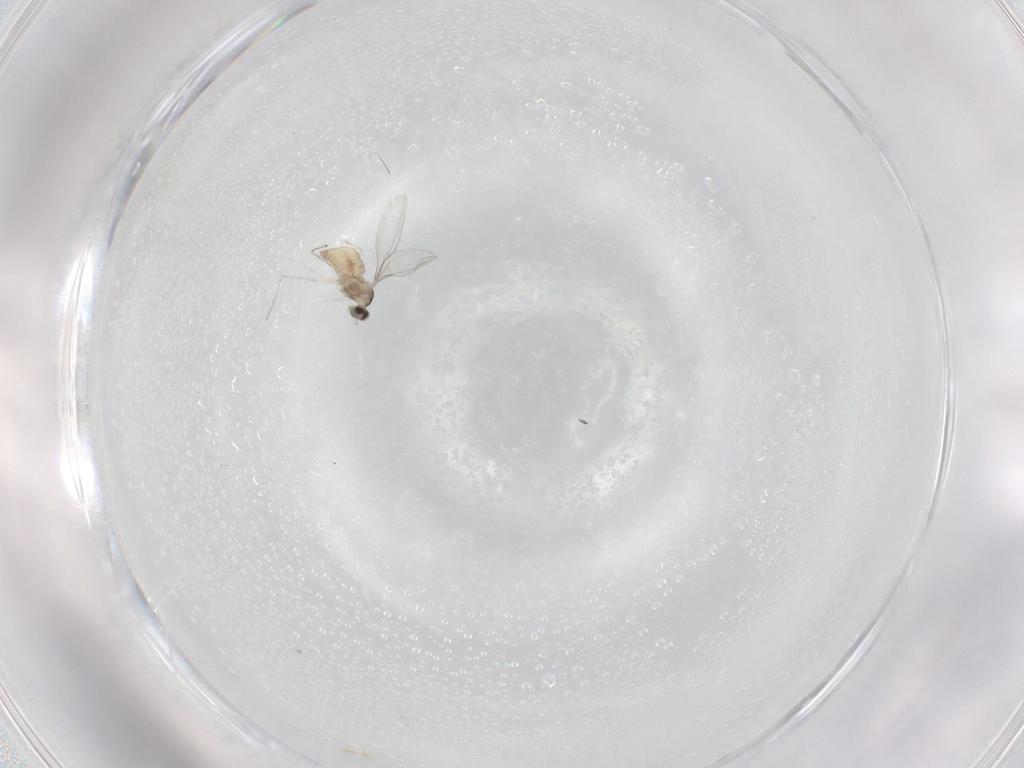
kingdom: Animalia
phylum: Arthropoda
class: Insecta
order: Diptera
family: Cecidomyiidae
